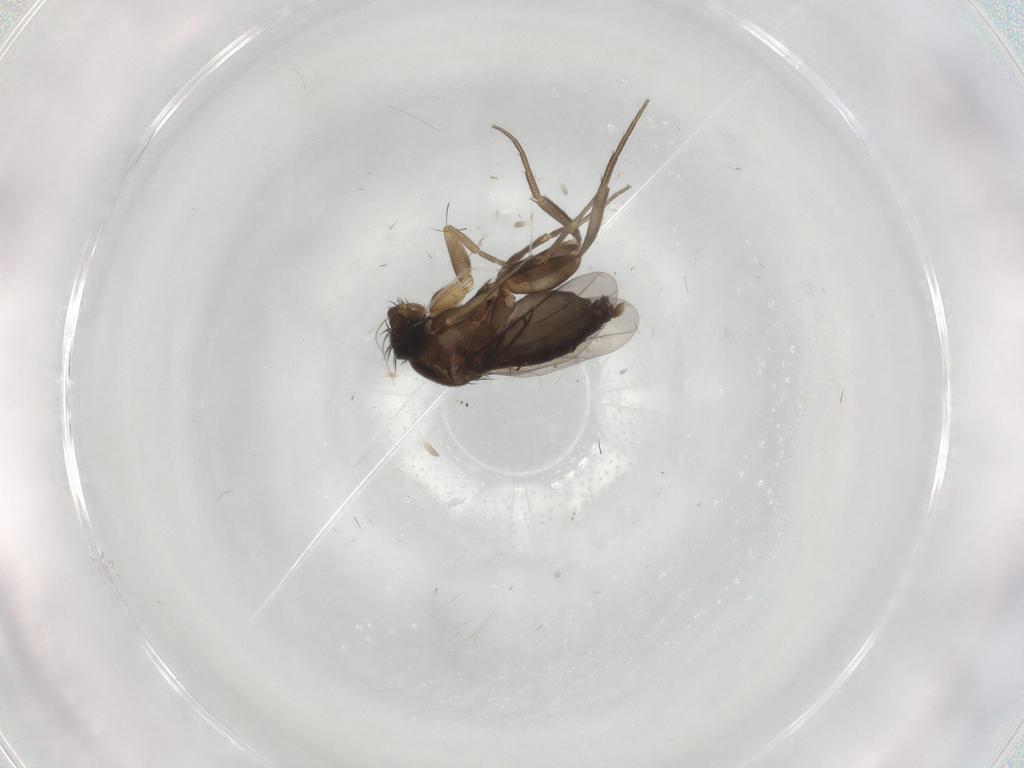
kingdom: Animalia
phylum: Arthropoda
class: Insecta
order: Diptera
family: Phoridae
